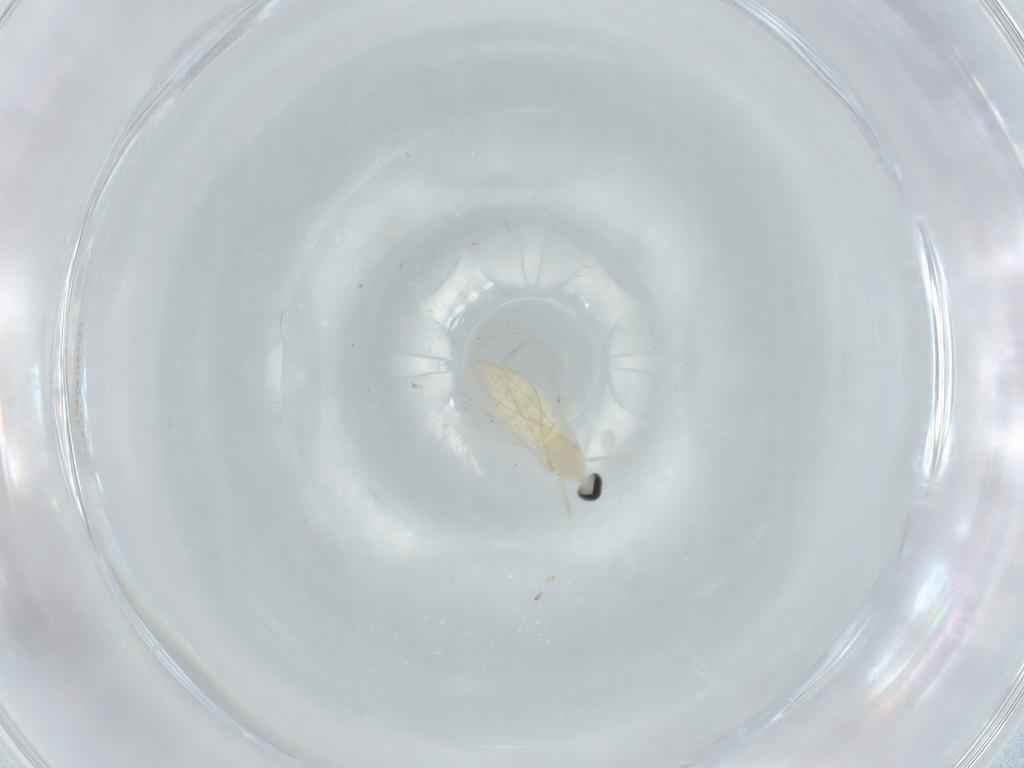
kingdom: Animalia
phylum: Arthropoda
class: Insecta
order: Diptera
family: Cecidomyiidae
